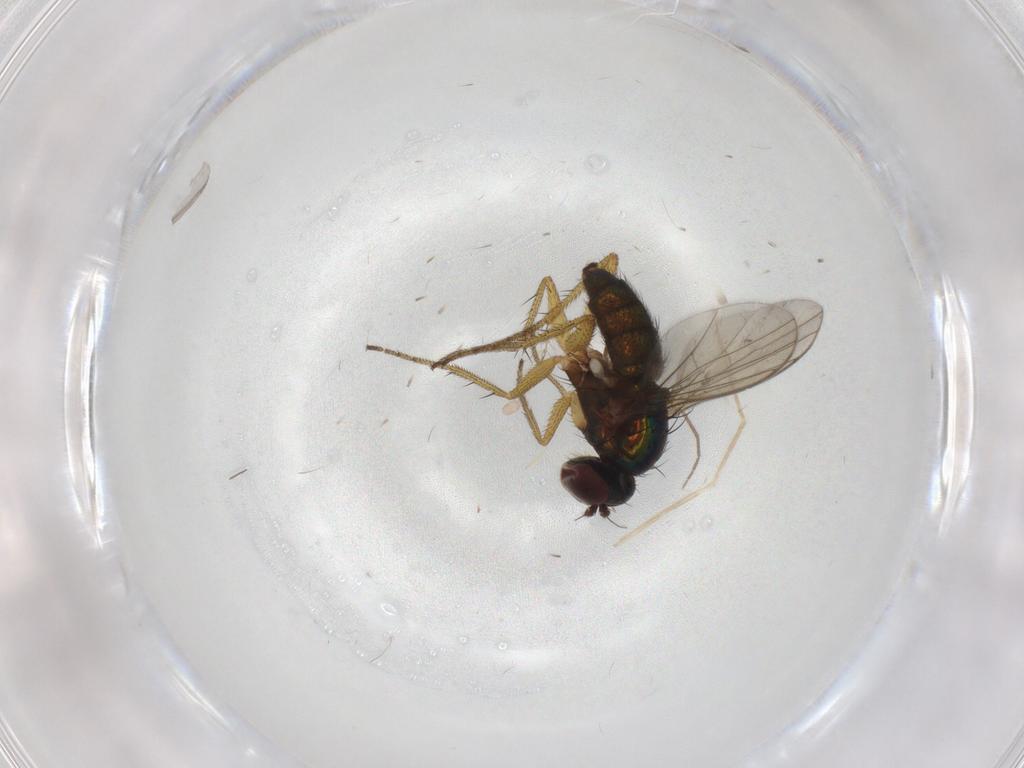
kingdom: Animalia
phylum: Arthropoda
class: Insecta
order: Diptera
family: Chironomidae
